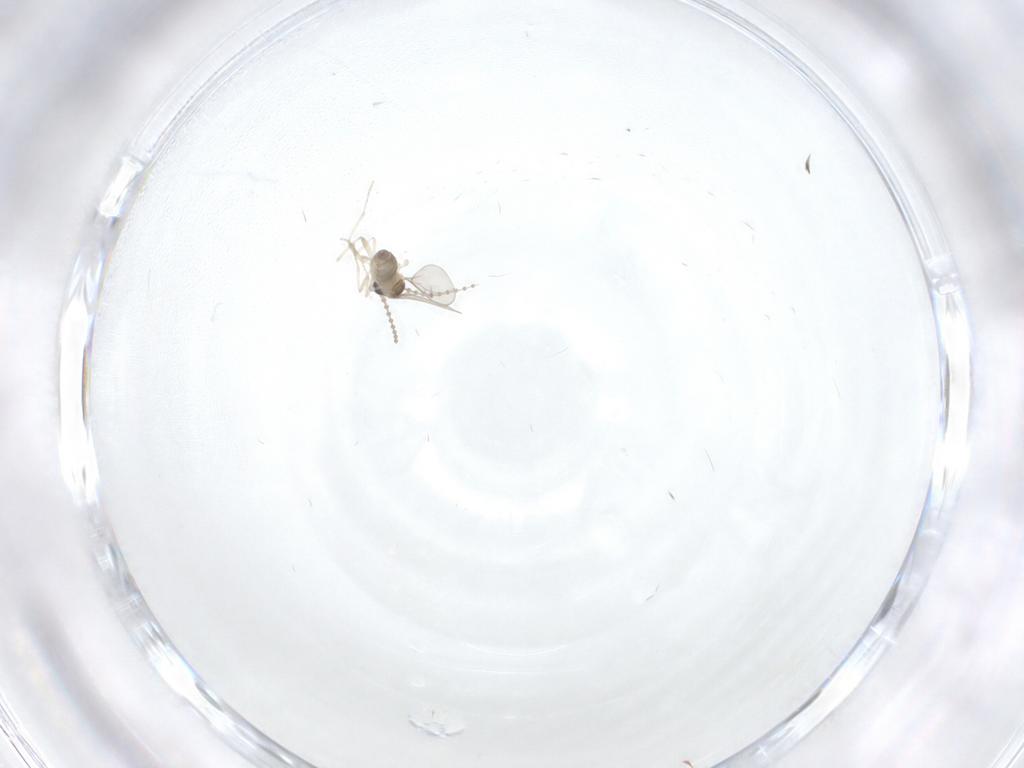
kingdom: Animalia
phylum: Arthropoda
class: Insecta
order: Diptera
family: Cecidomyiidae
